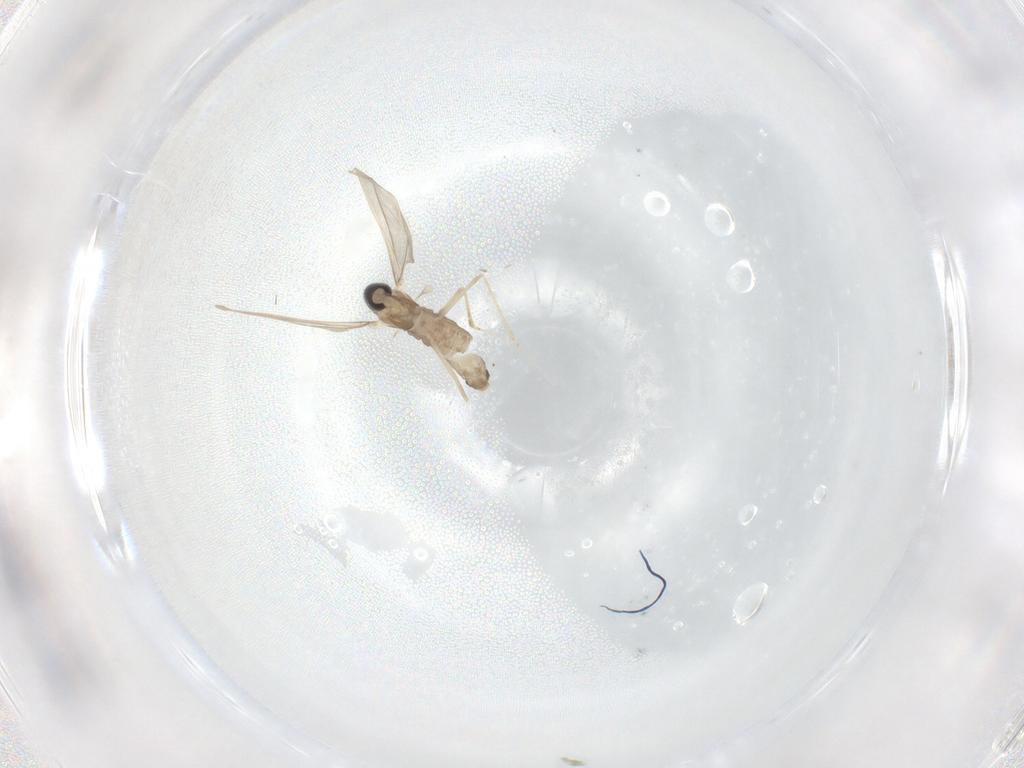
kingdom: Animalia
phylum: Arthropoda
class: Insecta
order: Diptera
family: Cecidomyiidae
